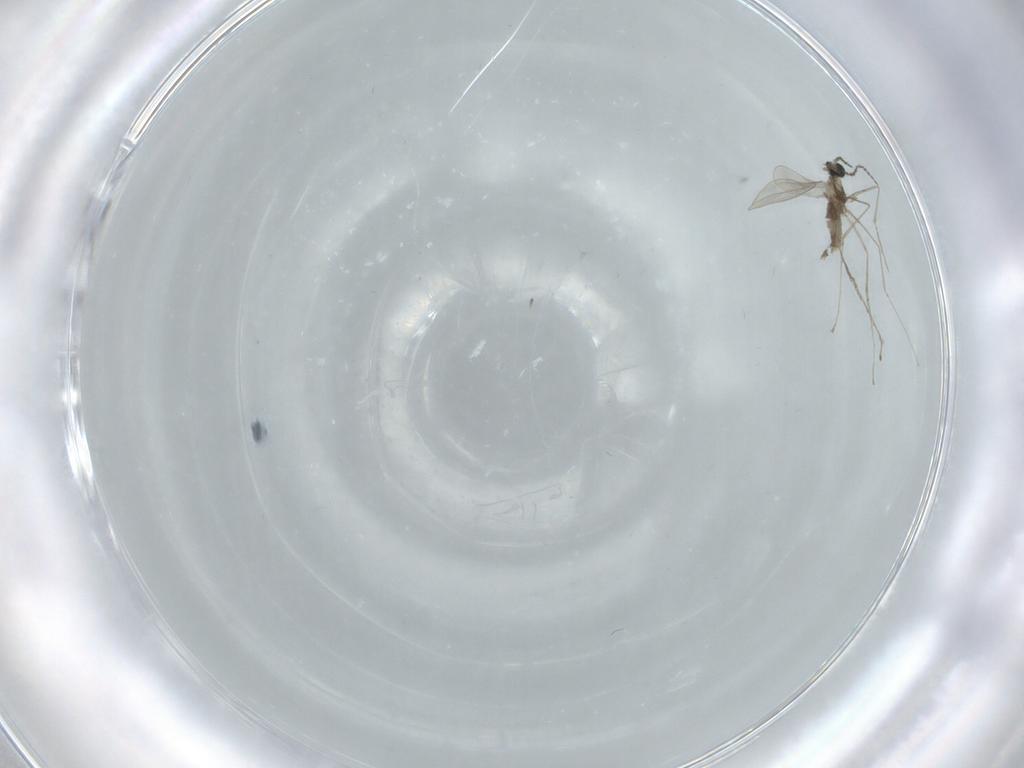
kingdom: Animalia
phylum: Arthropoda
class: Insecta
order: Diptera
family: Cecidomyiidae
